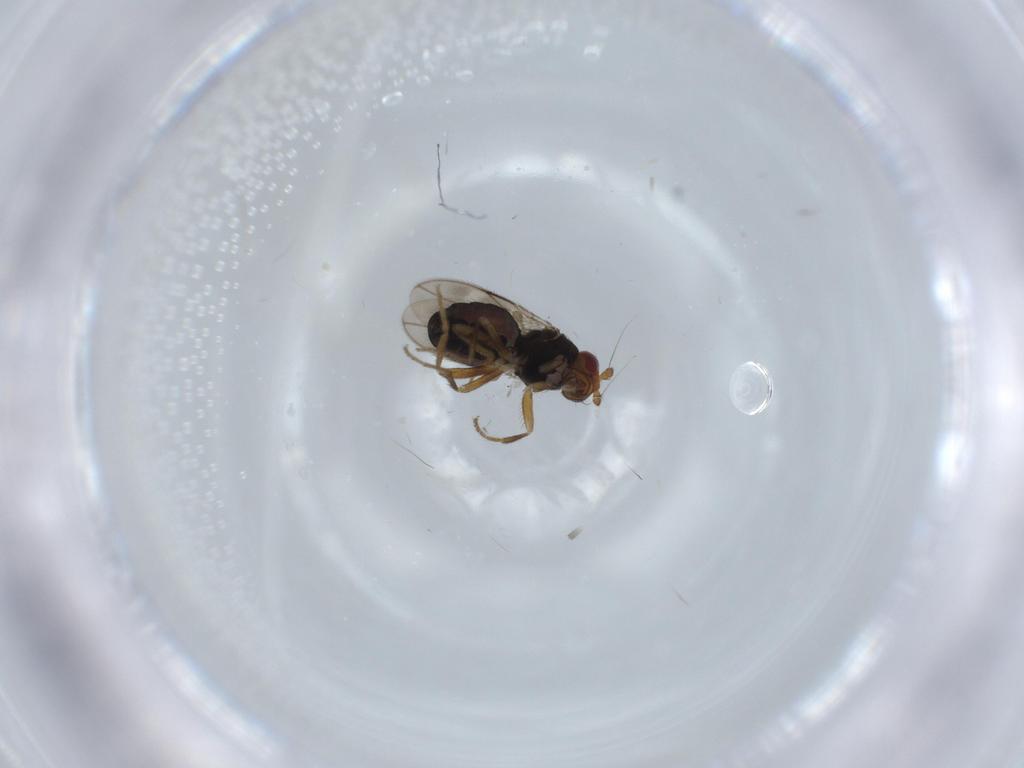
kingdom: Animalia
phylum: Arthropoda
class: Insecta
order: Diptera
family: Sphaeroceridae
